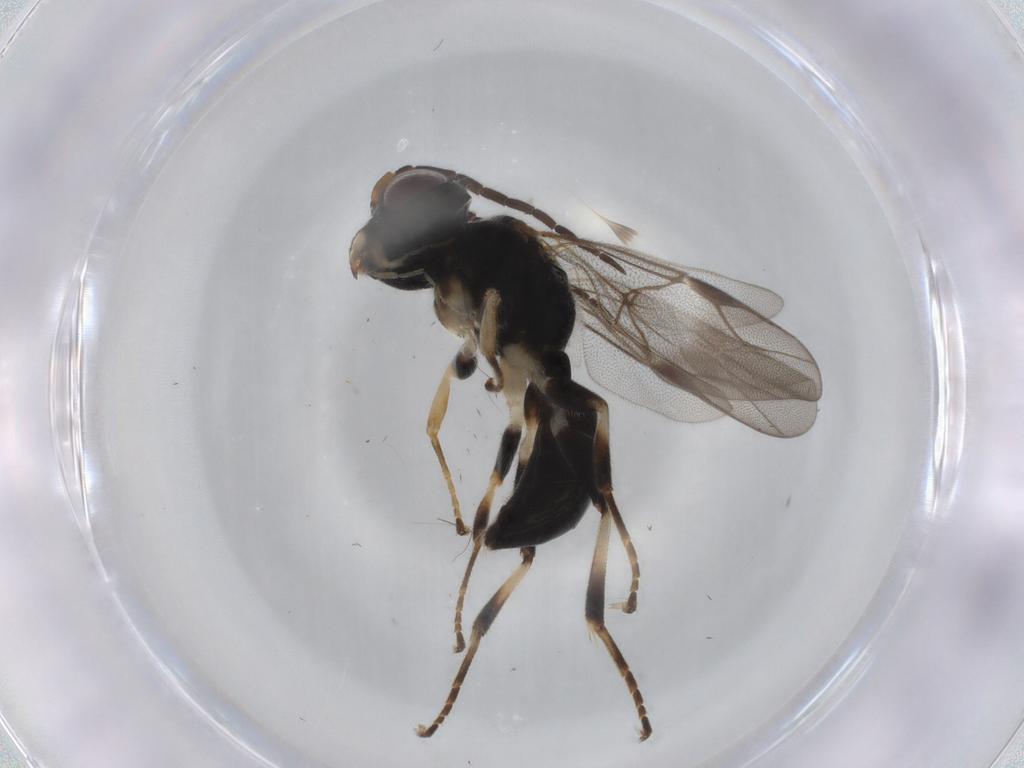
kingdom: Animalia
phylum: Arthropoda
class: Insecta
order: Hymenoptera
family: Dryinidae
